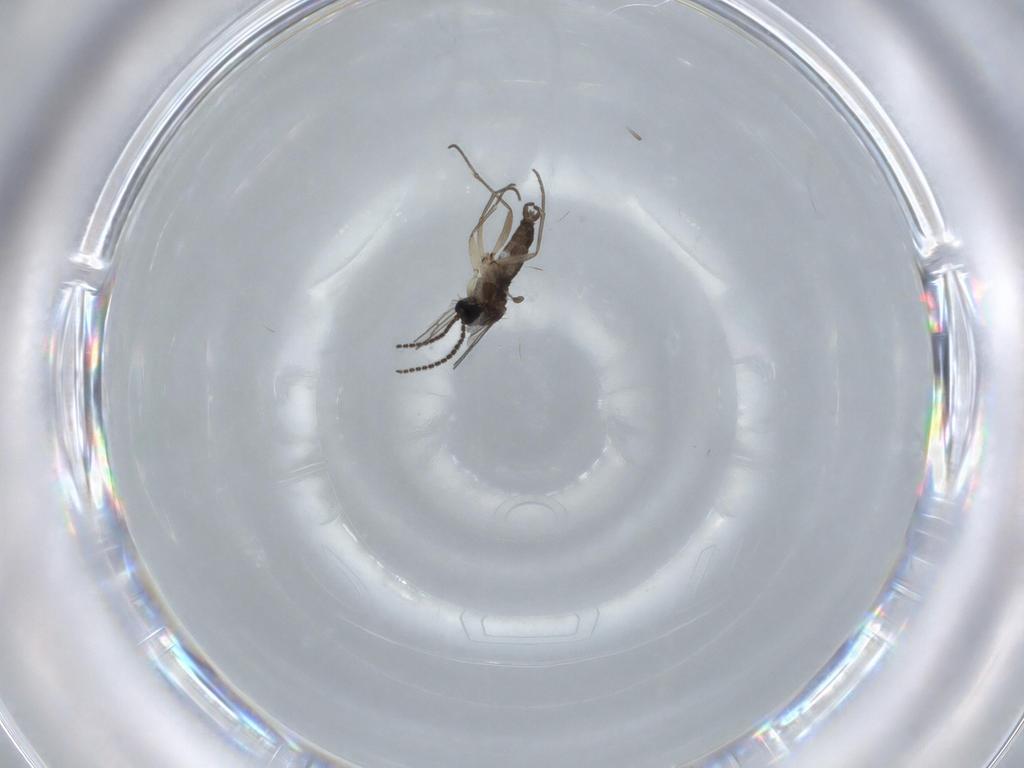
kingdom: Animalia
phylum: Arthropoda
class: Insecta
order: Diptera
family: Sciaridae
